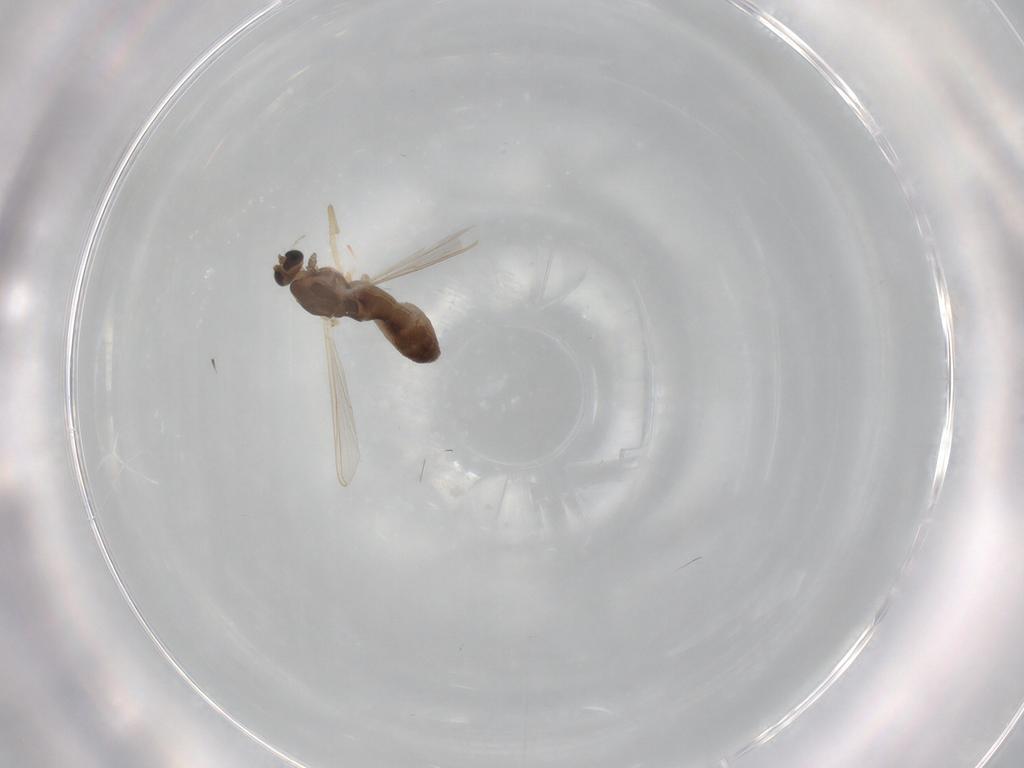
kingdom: Animalia
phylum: Arthropoda
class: Insecta
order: Diptera
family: Chironomidae
